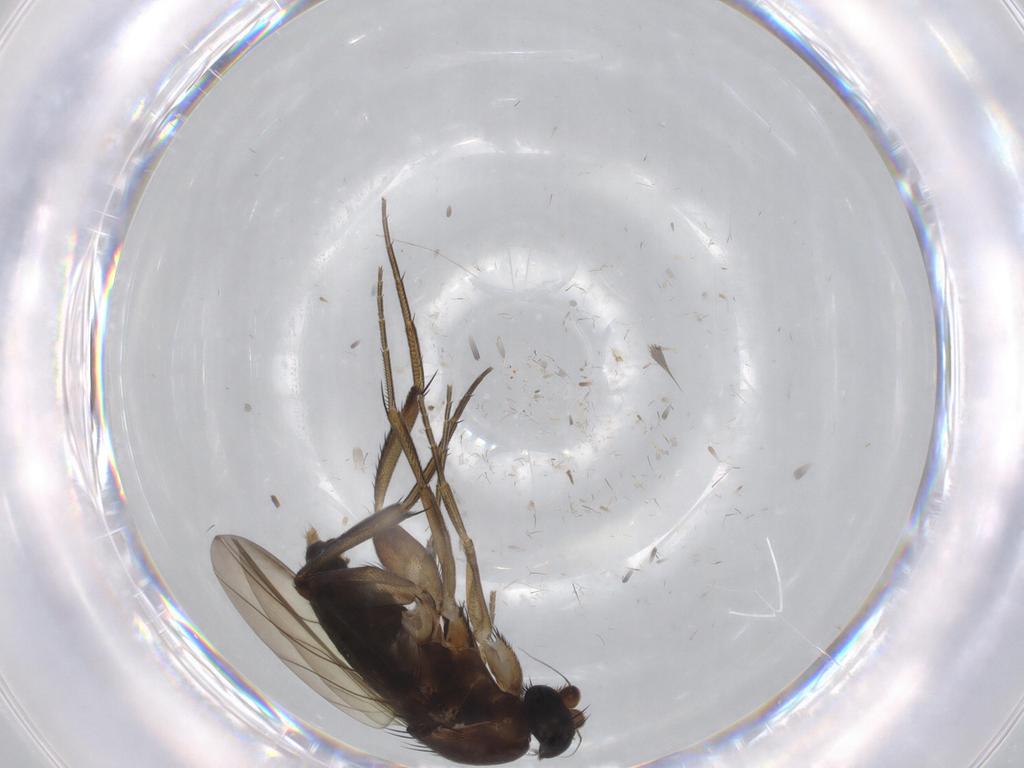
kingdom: Animalia
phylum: Arthropoda
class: Insecta
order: Diptera
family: Phoridae
